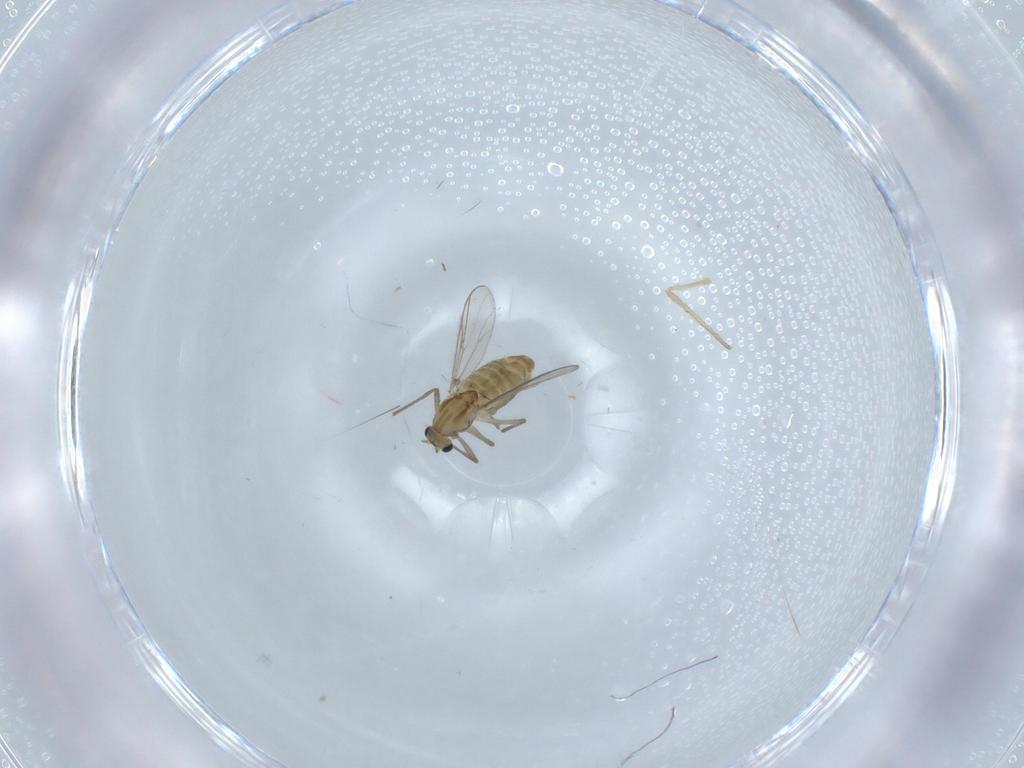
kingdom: Animalia
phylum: Arthropoda
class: Insecta
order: Diptera
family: Chironomidae
